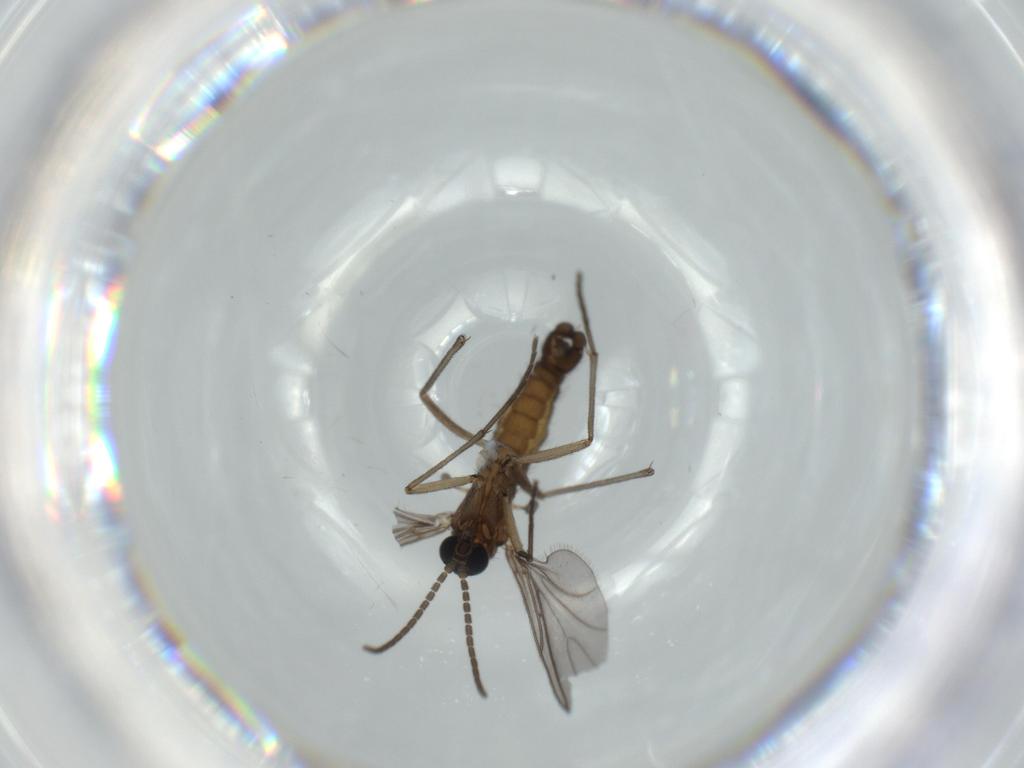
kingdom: Animalia
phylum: Arthropoda
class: Insecta
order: Diptera
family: Sciaridae
